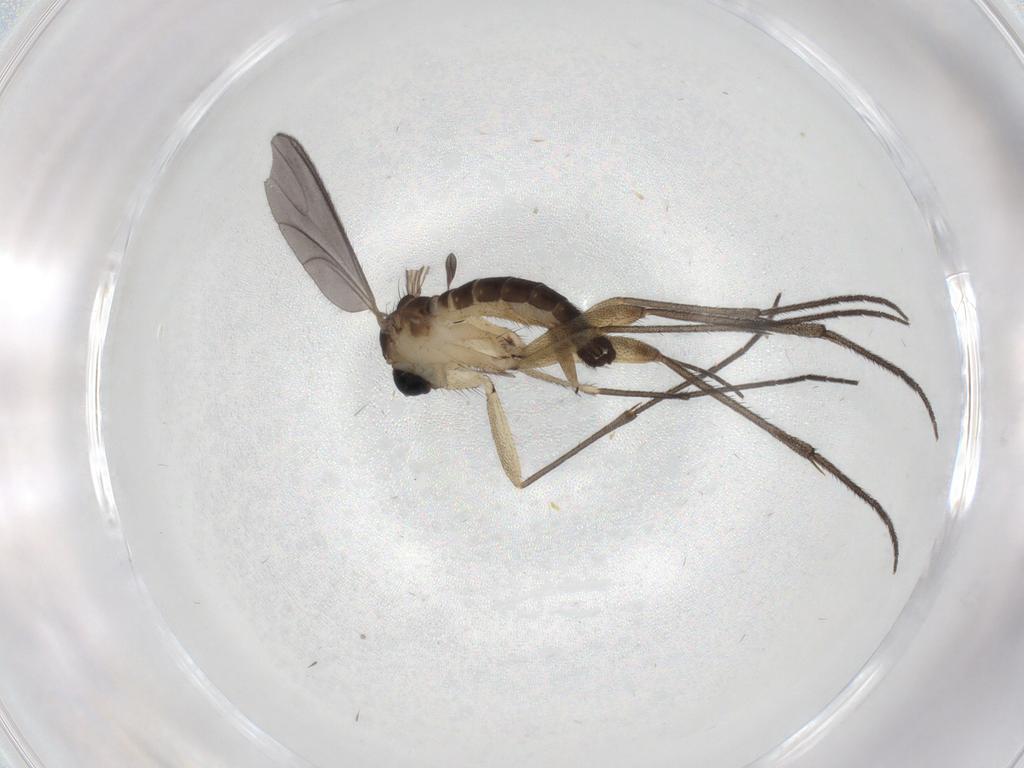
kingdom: Animalia
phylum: Arthropoda
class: Insecta
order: Diptera
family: Sciaridae
